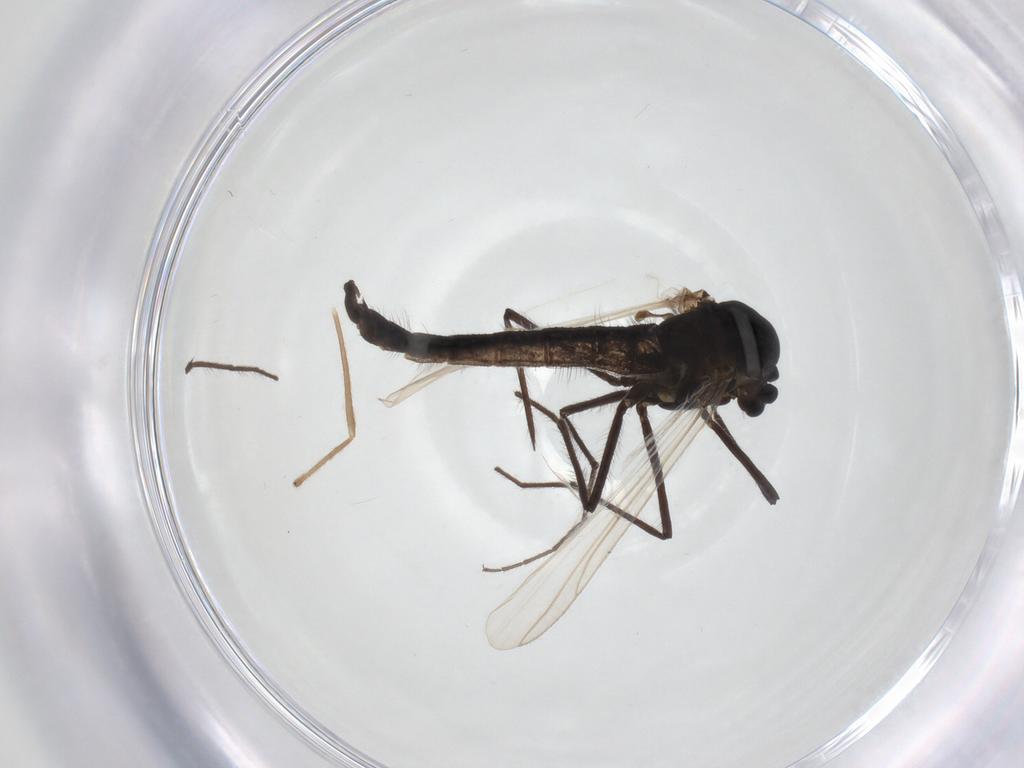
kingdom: Animalia
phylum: Arthropoda
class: Insecta
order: Diptera
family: Chironomidae
